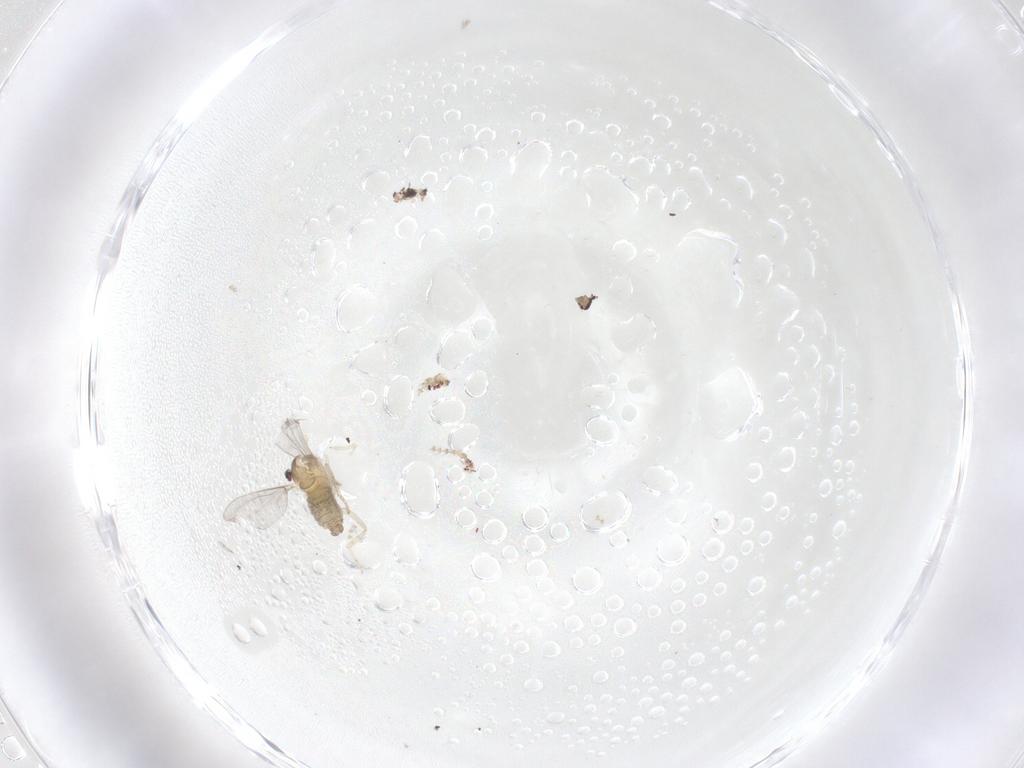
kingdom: Animalia
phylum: Arthropoda
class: Insecta
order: Diptera
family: Cecidomyiidae
